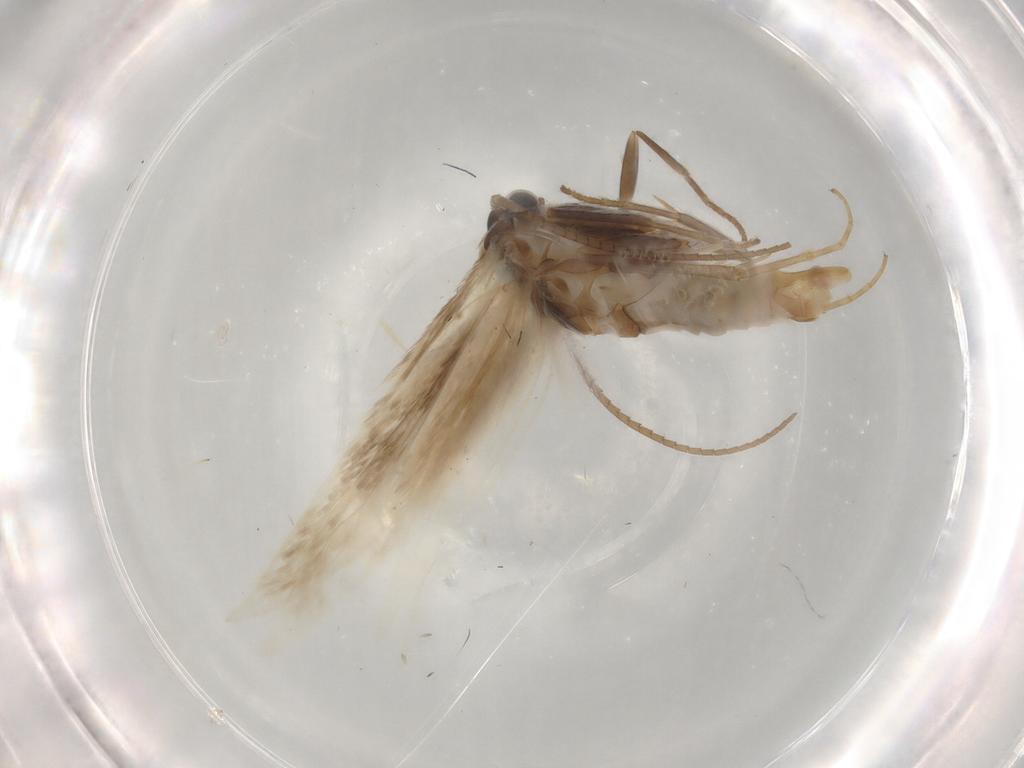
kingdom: Animalia
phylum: Arthropoda
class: Insecta
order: Lepidoptera
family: Elachistidae
